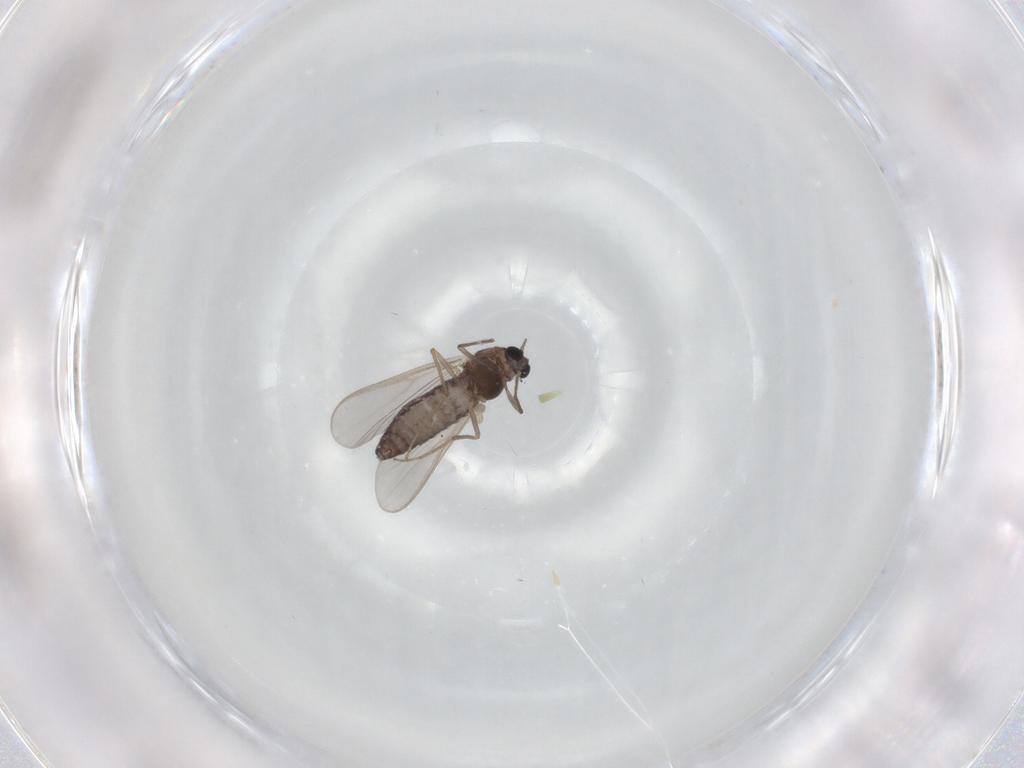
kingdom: Animalia
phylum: Arthropoda
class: Insecta
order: Diptera
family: Chironomidae
